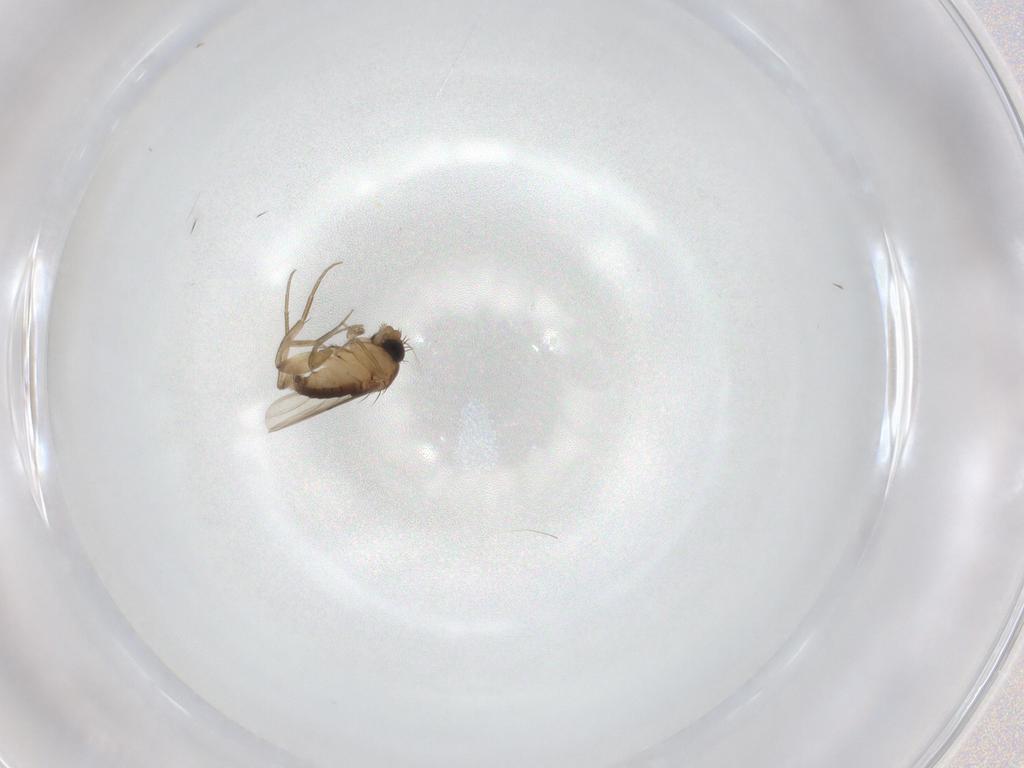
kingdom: Animalia
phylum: Arthropoda
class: Insecta
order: Diptera
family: Phoridae
